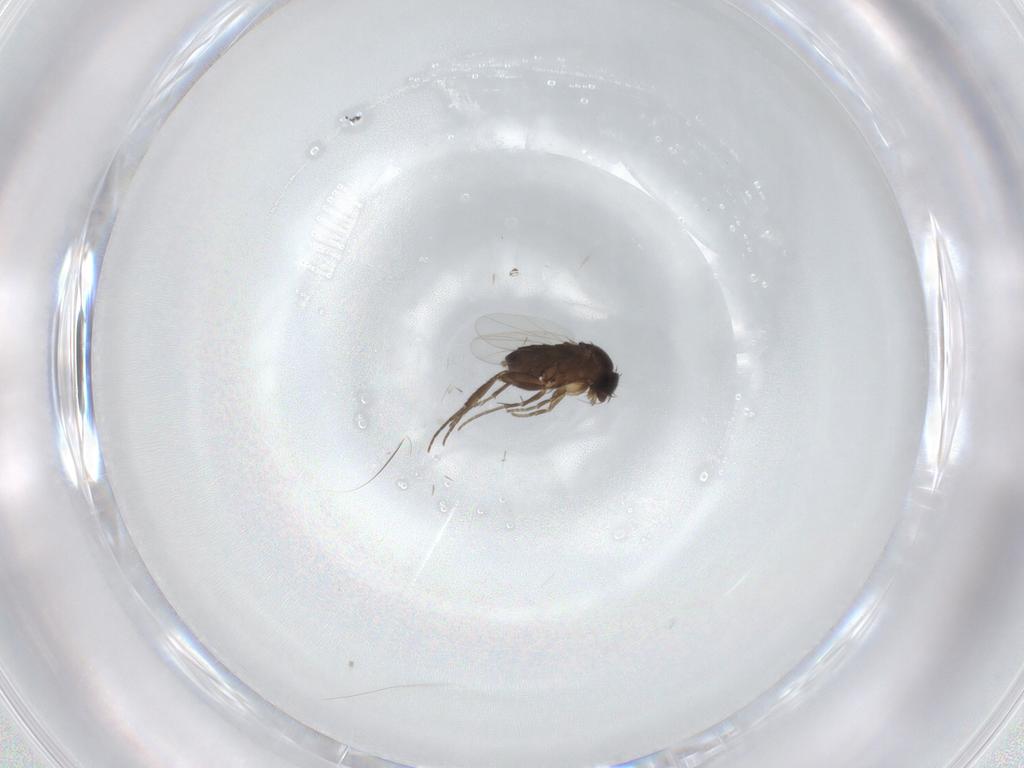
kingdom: Animalia
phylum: Arthropoda
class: Insecta
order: Diptera
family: Phoridae
